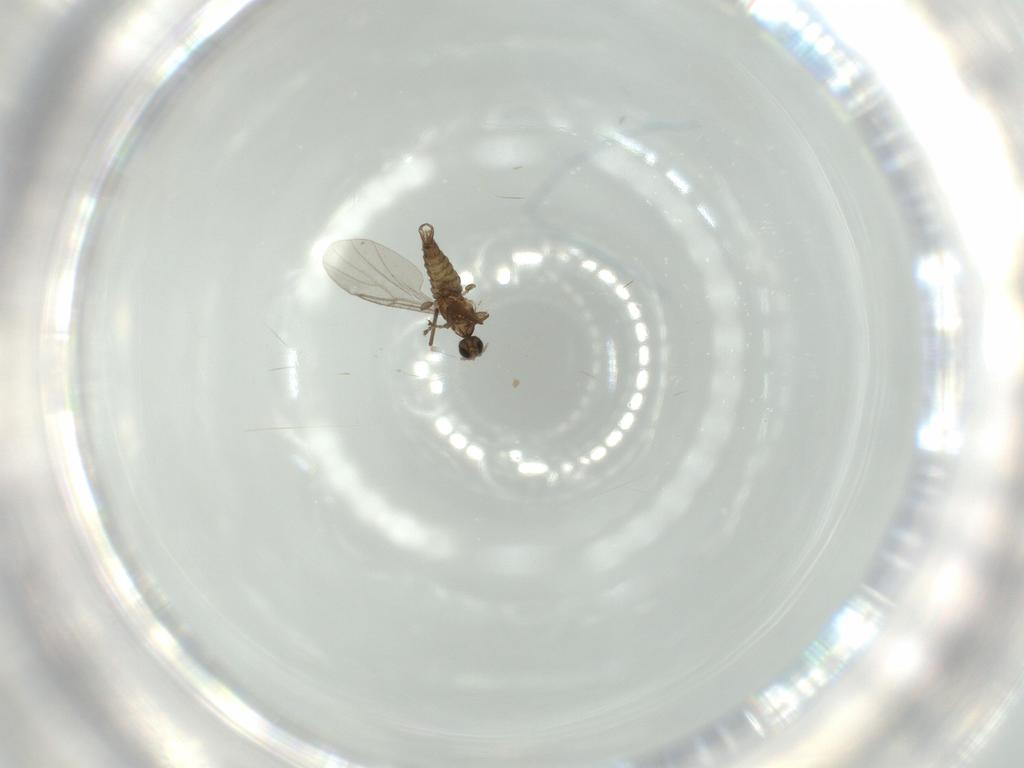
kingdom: Animalia
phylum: Arthropoda
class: Insecta
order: Diptera
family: Cecidomyiidae
